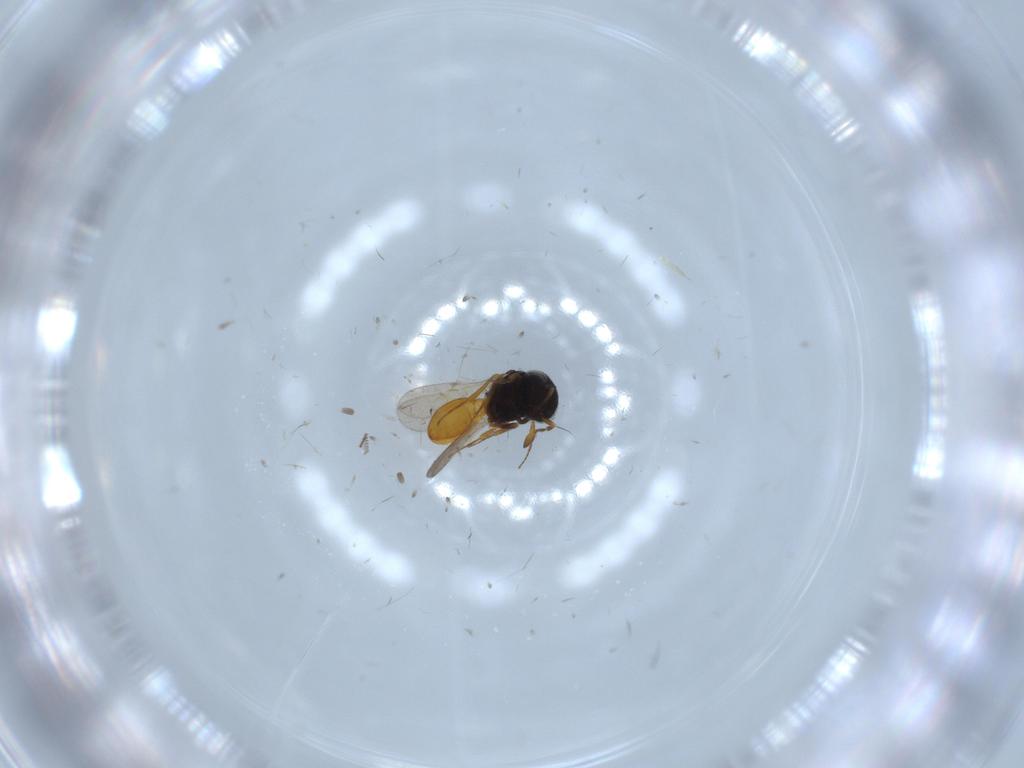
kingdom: Animalia
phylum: Arthropoda
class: Insecta
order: Hymenoptera
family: Scelionidae
